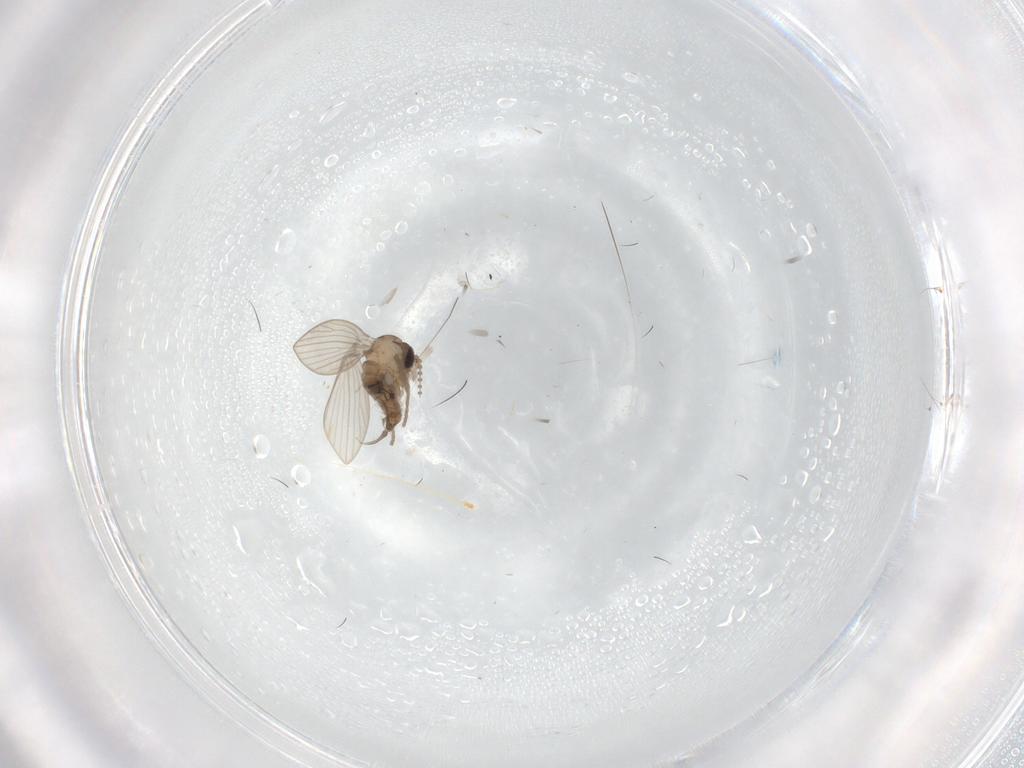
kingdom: Animalia
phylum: Arthropoda
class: Insecta
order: Diptera
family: Psychodidae
